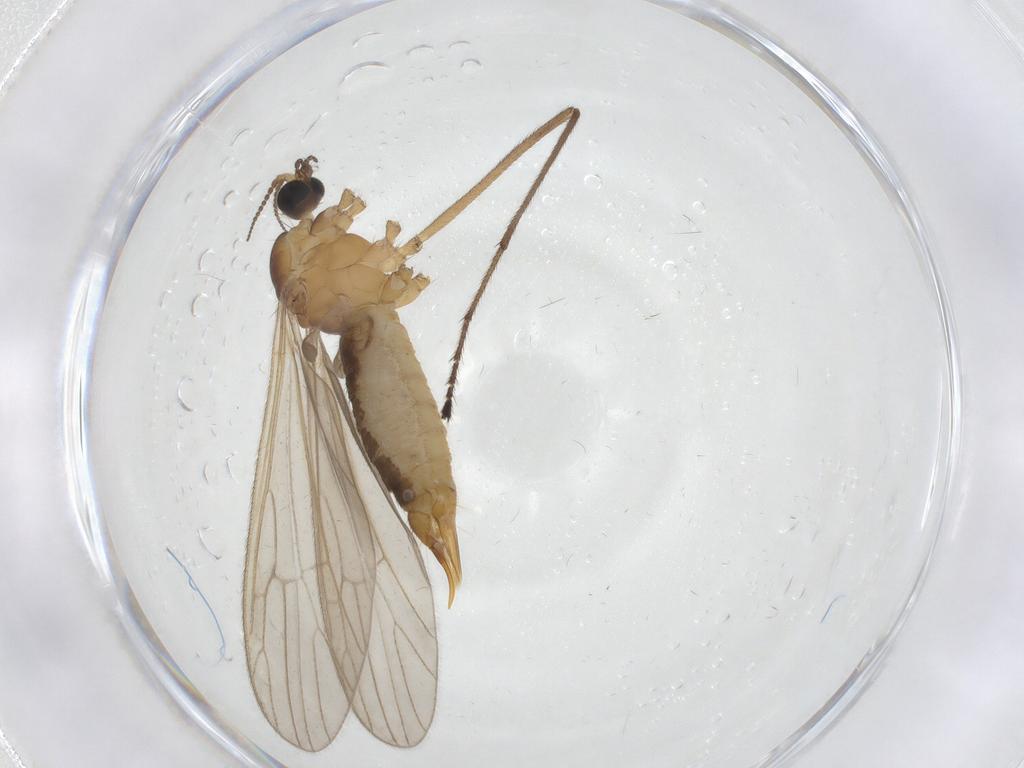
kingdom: Animalia
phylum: Arthropoda
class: Insecta
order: Diptera
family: Limoniidae
